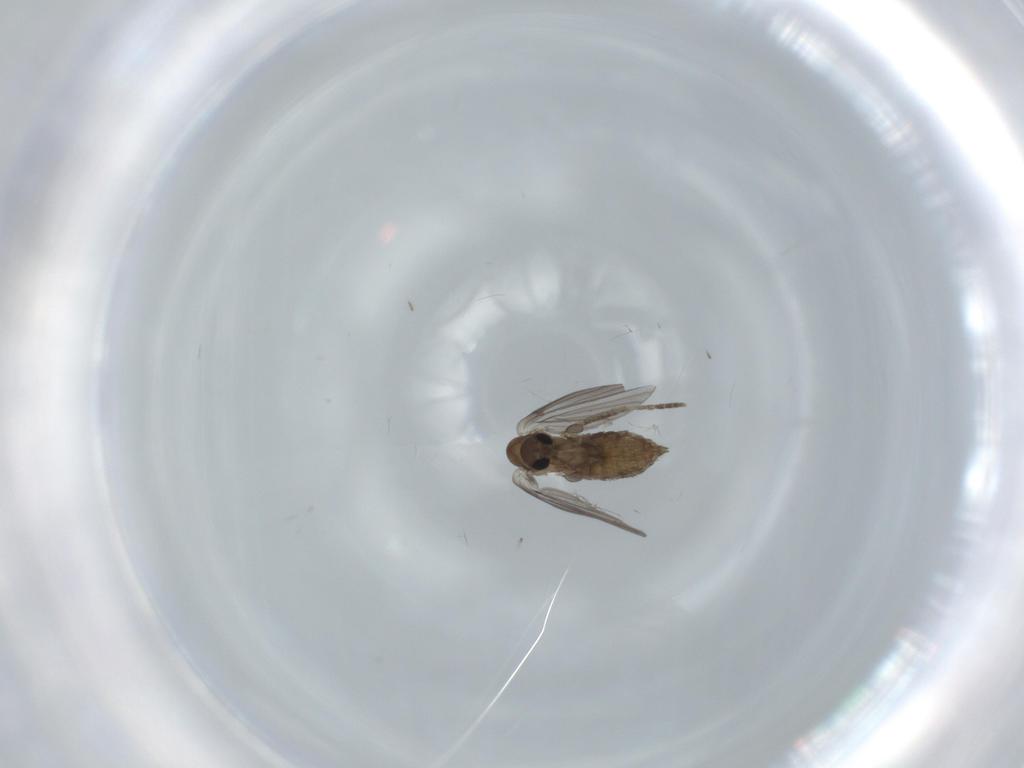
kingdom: Animalia
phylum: Arthropoda
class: Insecta
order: Diptera
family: Psychodidae
